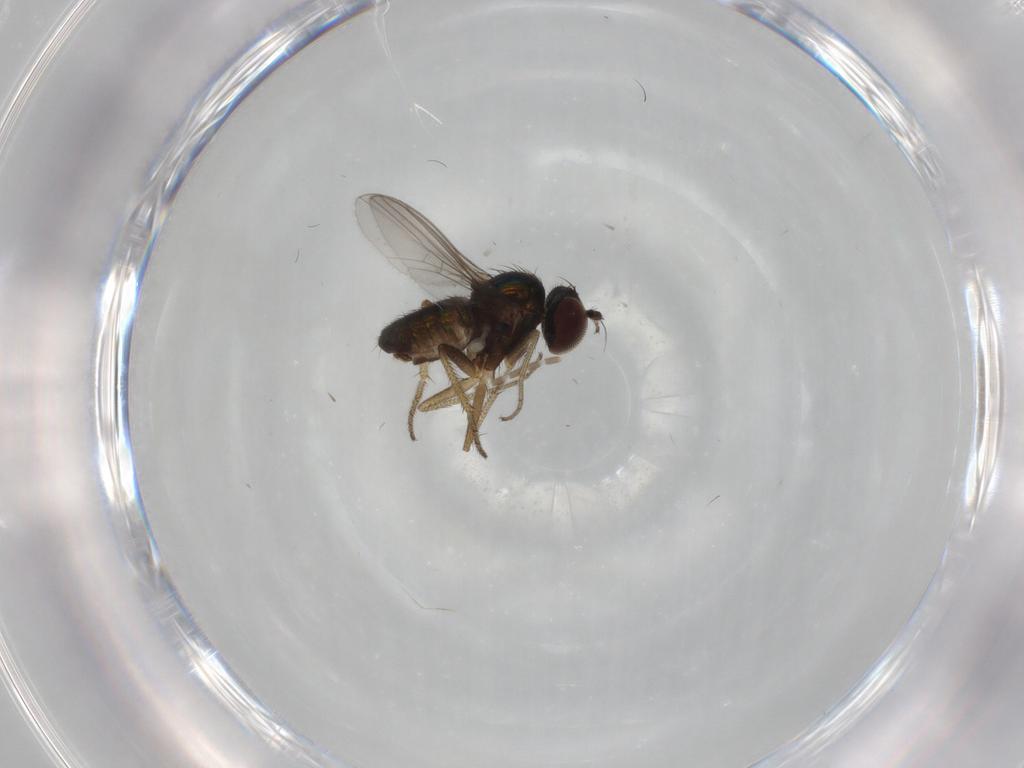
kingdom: Animalia
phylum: Arthropoda
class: Insecta
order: Diptera
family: Dolichopodidae
